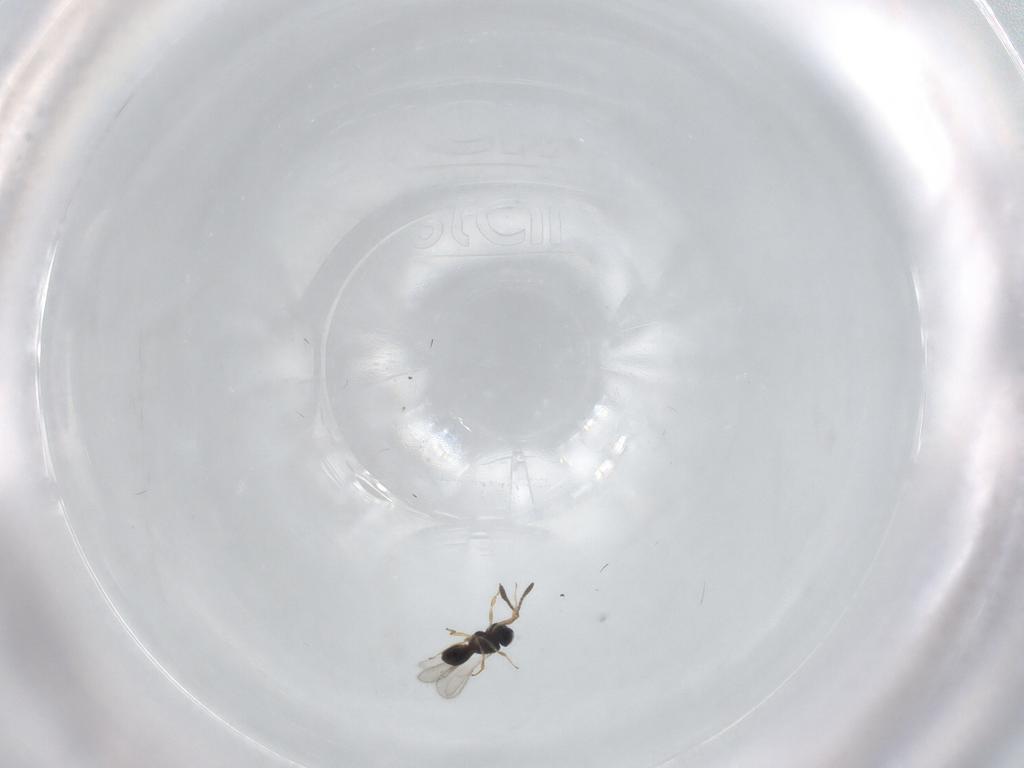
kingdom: Animalia
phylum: Arthropoda
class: Insecta
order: Hymenoptera
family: Scelionidae
